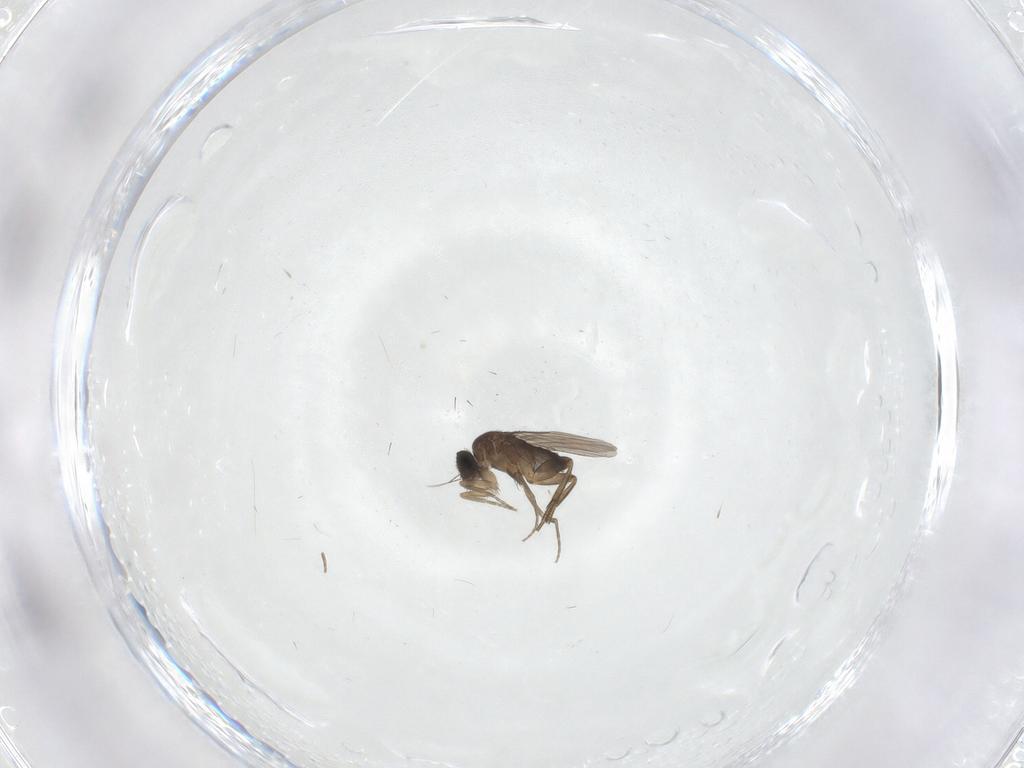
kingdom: Animalia
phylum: Arthropoda
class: Insecta
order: Diptera
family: Phoridae
